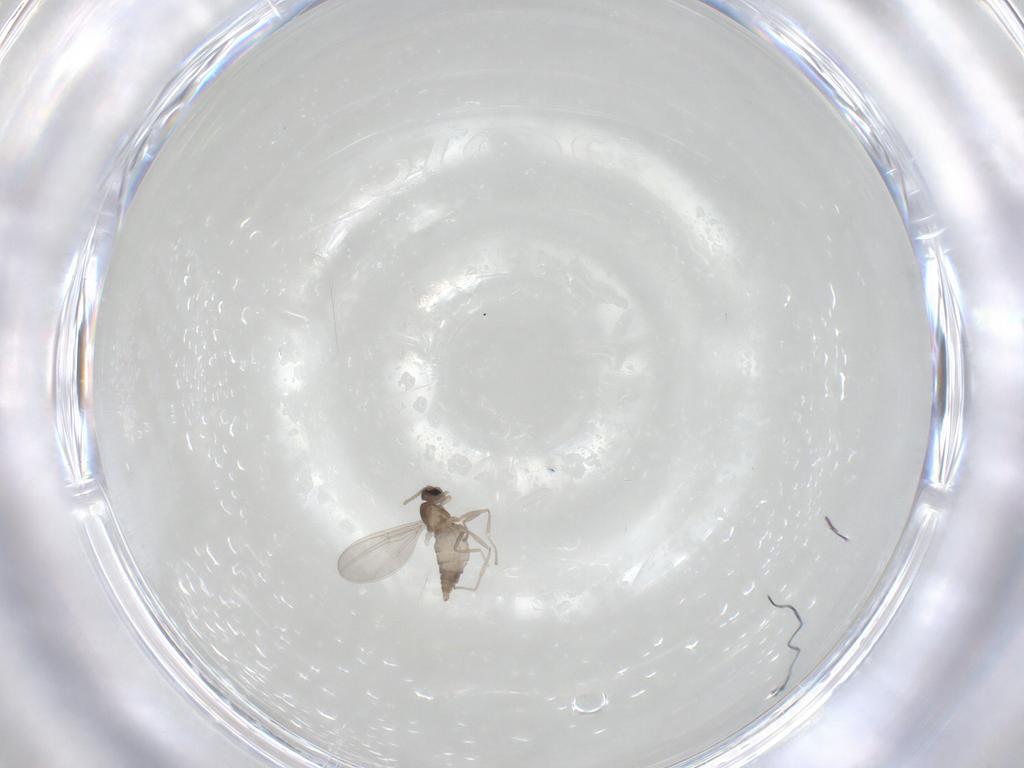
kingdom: Animalia
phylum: Arthropoda
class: Insecta
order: Diptera
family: Cecidomyiidae
